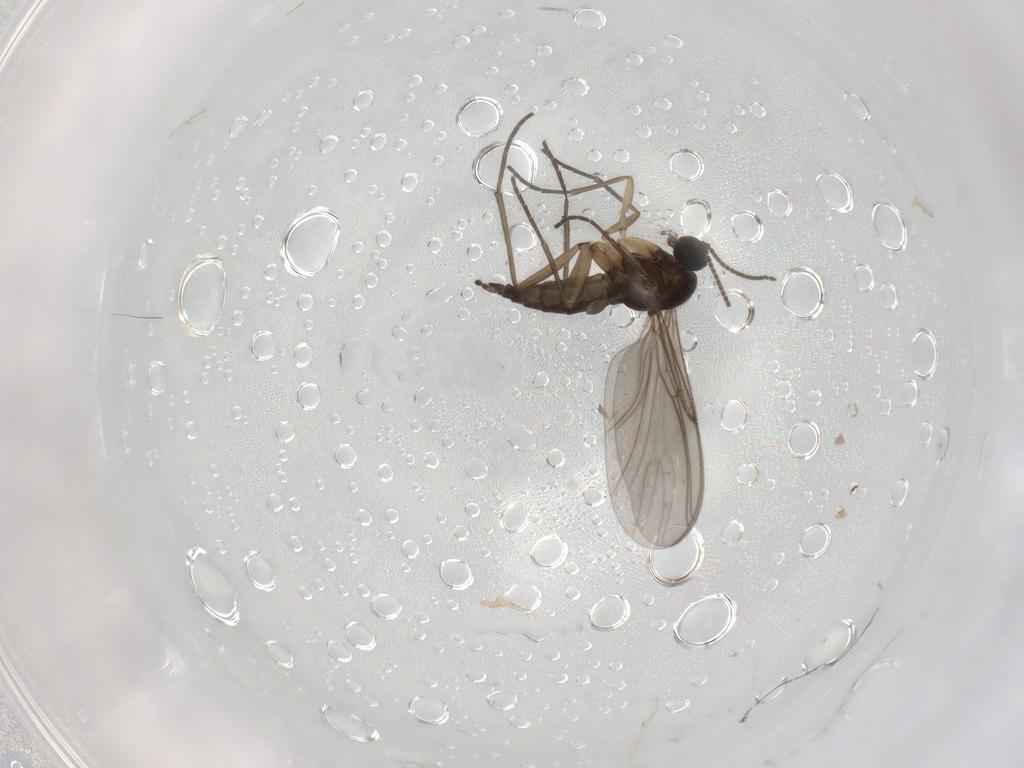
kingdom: Animalia
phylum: Arthropoda
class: Insecta
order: Diptera
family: Sciaridae
